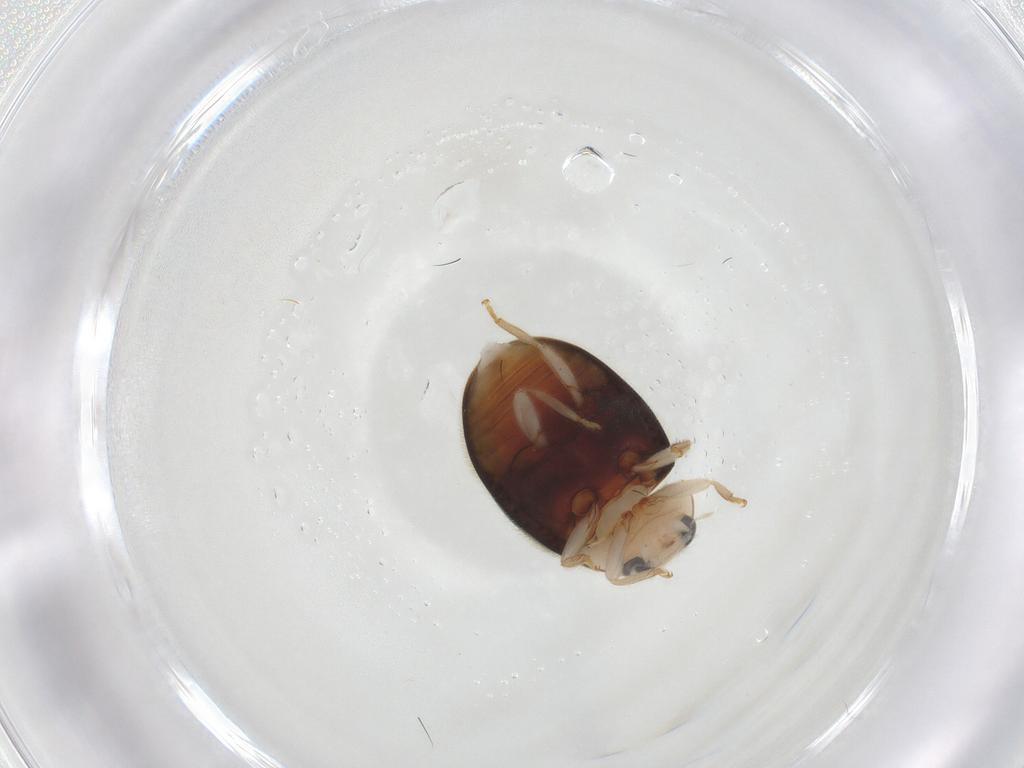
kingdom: Animalia
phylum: Arthropoda
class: Insecta
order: Coleoptera
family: Coccinellidae
